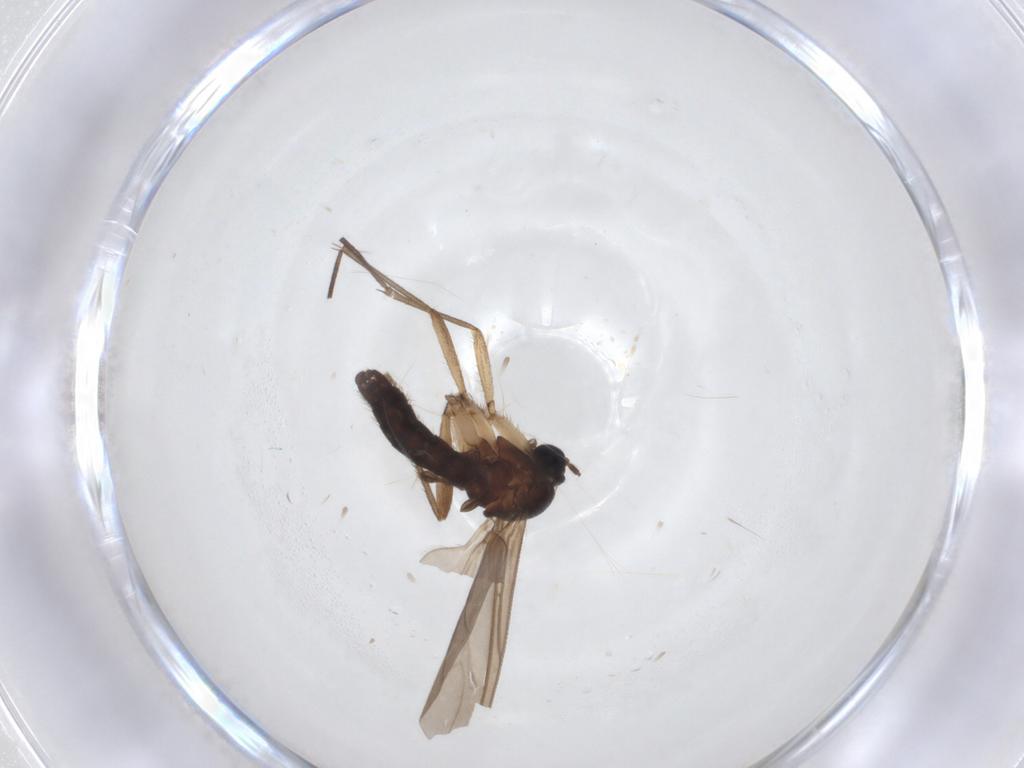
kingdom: Animalia
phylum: Arthropoda
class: Insecta
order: Diptera
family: Sciaridae
